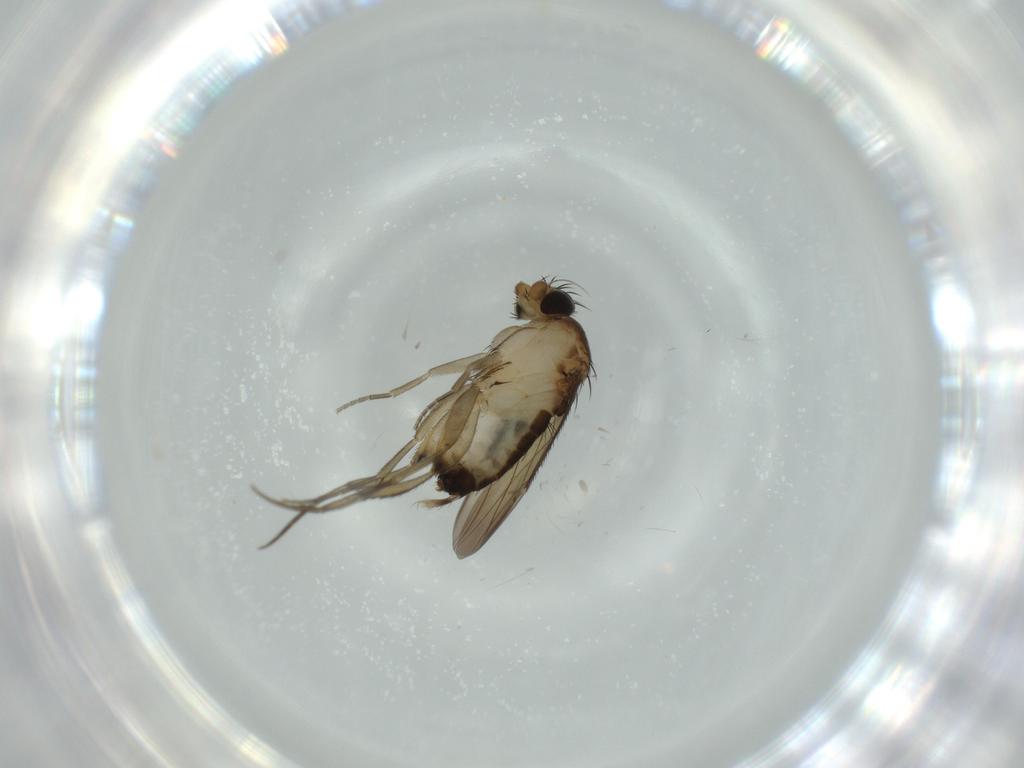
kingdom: Animalia
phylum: Arthropoda
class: Insecta
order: Diptera
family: Phoridae
